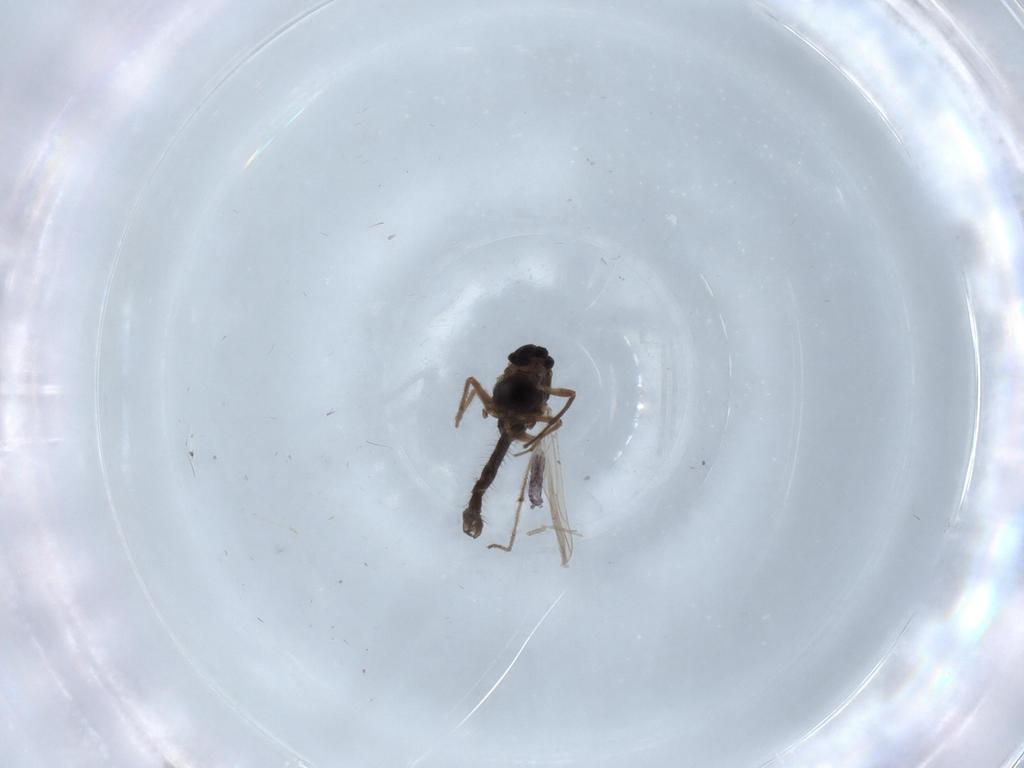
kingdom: Animalia
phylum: Arthropoda
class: Insecta
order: Diptera
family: Chironomidae
